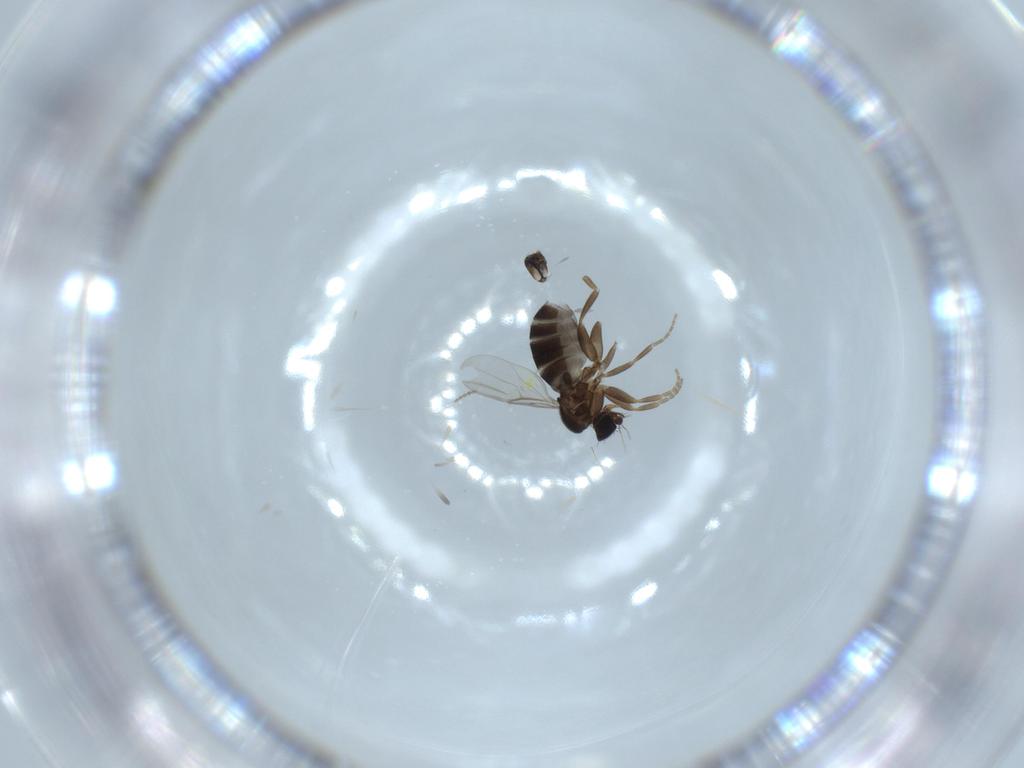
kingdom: Animalia
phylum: Arthropoda
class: Insecta
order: Diptera
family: Phoridae
